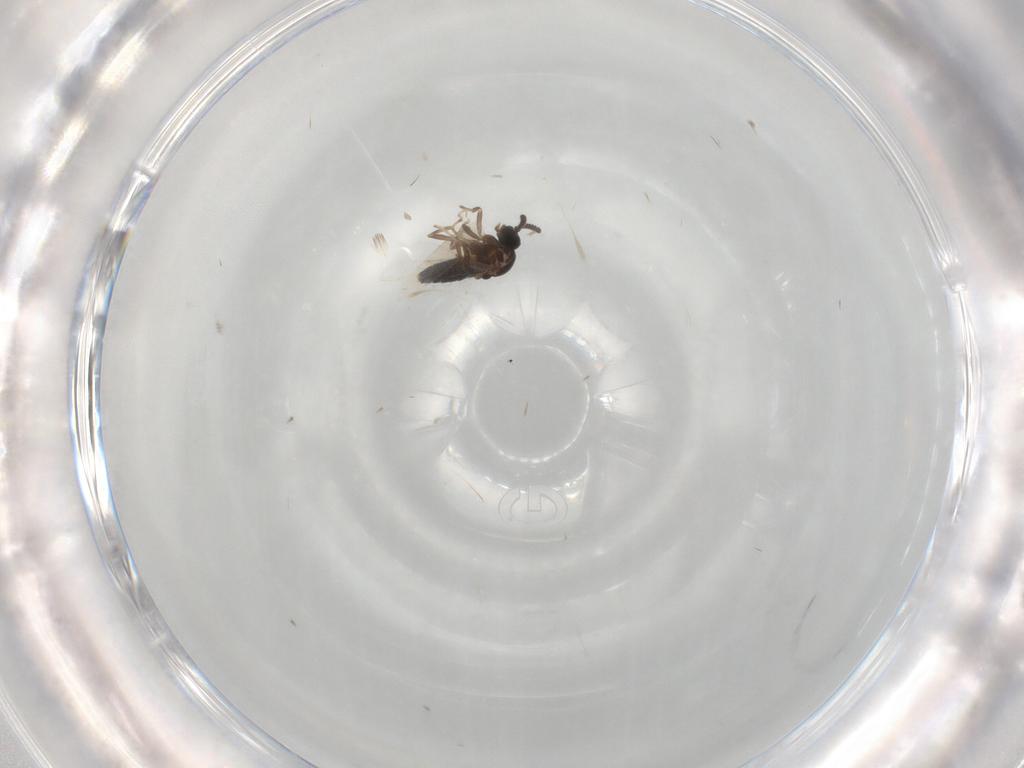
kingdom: Animalia
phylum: Arthropoda
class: Insecta
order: Diptera
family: Scatopsidae
